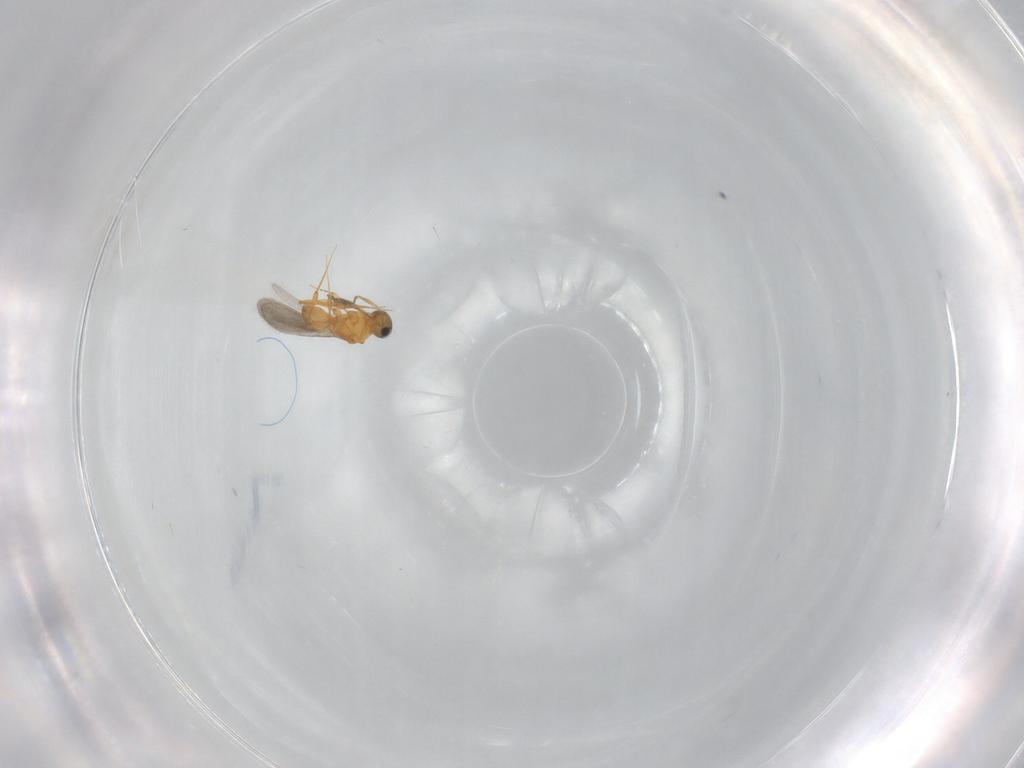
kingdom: Animalia
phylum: Arthropoda
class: Insecta
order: Hymenoptera
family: Platygastridae
